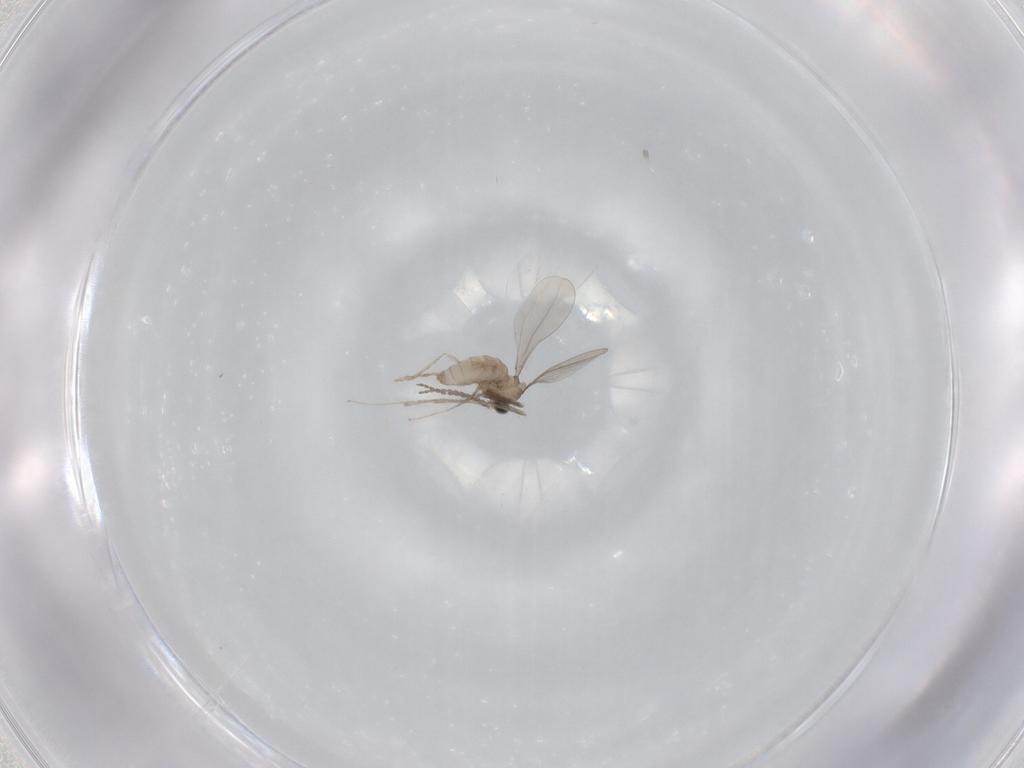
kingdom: Animalia
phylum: Arthropoda
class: Insecta
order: Diptera
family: Cecidomyiidae
